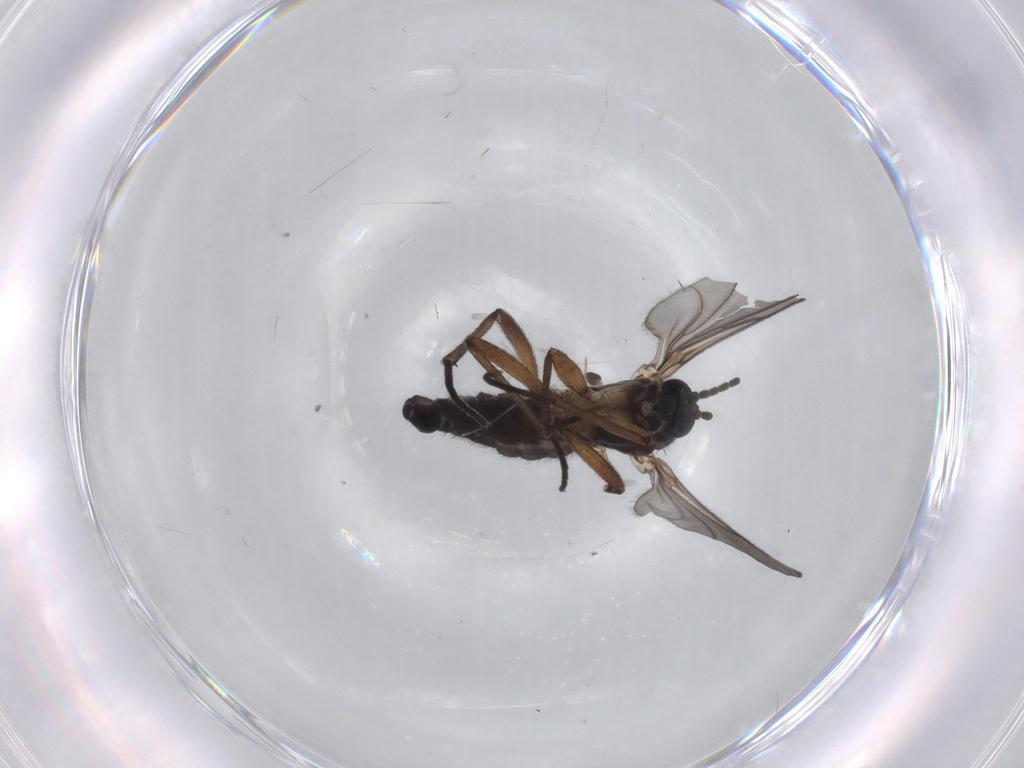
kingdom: Animalia
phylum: Arthropoda
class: Insecta
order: Diptera
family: Sciaridae
